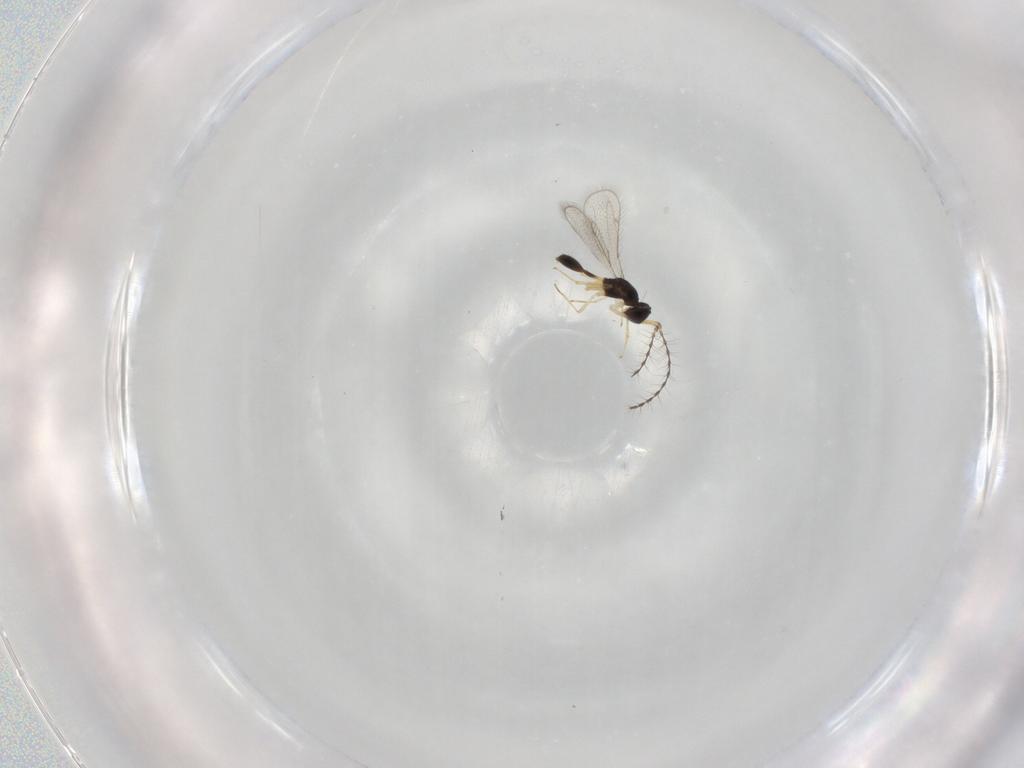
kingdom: Animalia
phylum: Arthropoda
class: Insecta
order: Hymenoptera
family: Diparidae
